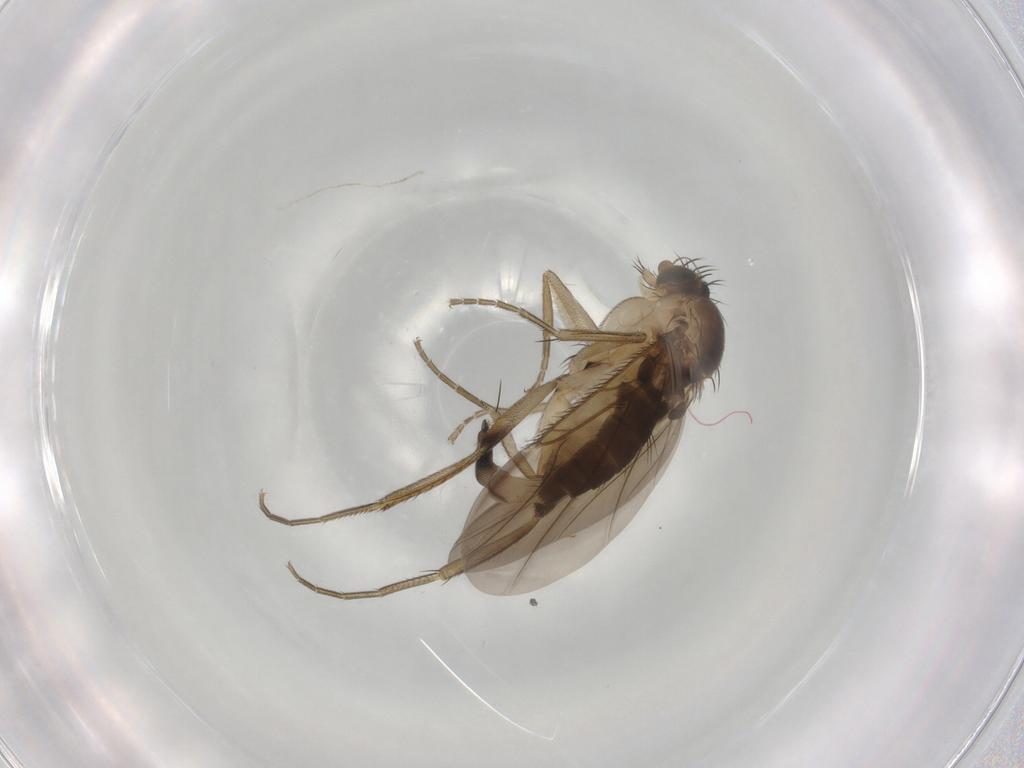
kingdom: Animalia
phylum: Arthropoda
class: Insecta
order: Diptera
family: Phoridae
